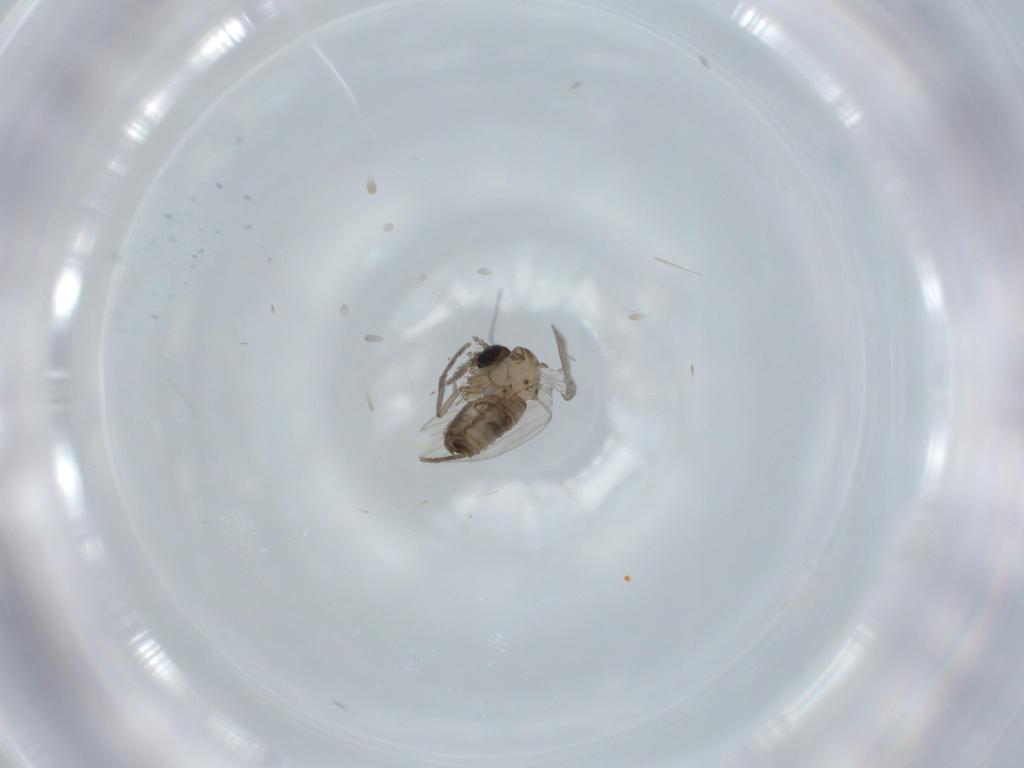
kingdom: Animalia
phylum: Arthropoda
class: Insecta
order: Diptera
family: Psychodidae
